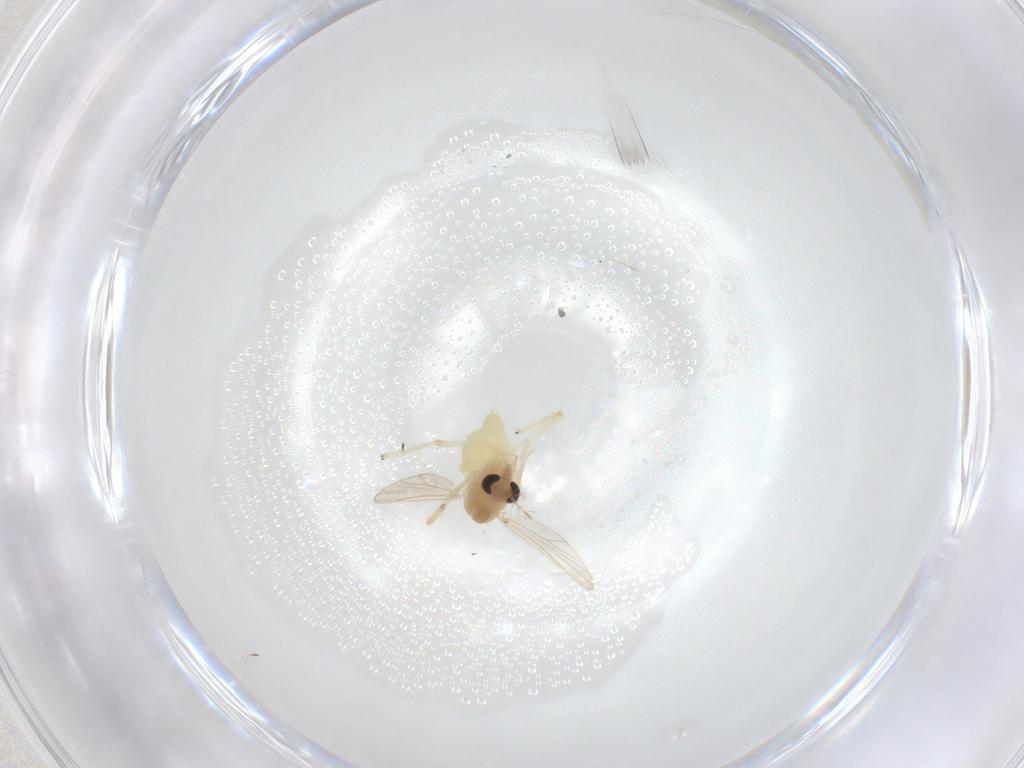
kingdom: Animalia
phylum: Arthropoda
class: Insecta
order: Diptera
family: Chironomidae
